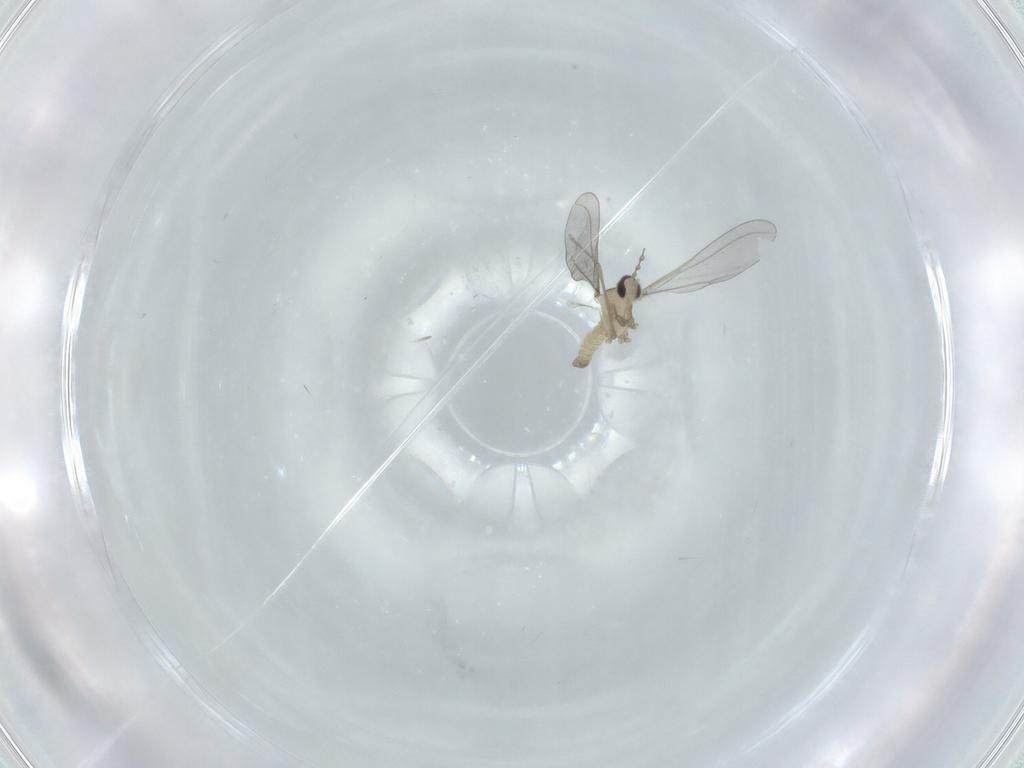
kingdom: Animalia
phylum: Arthropoda
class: Insecta
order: Diptera
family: Cecidomyiidae
